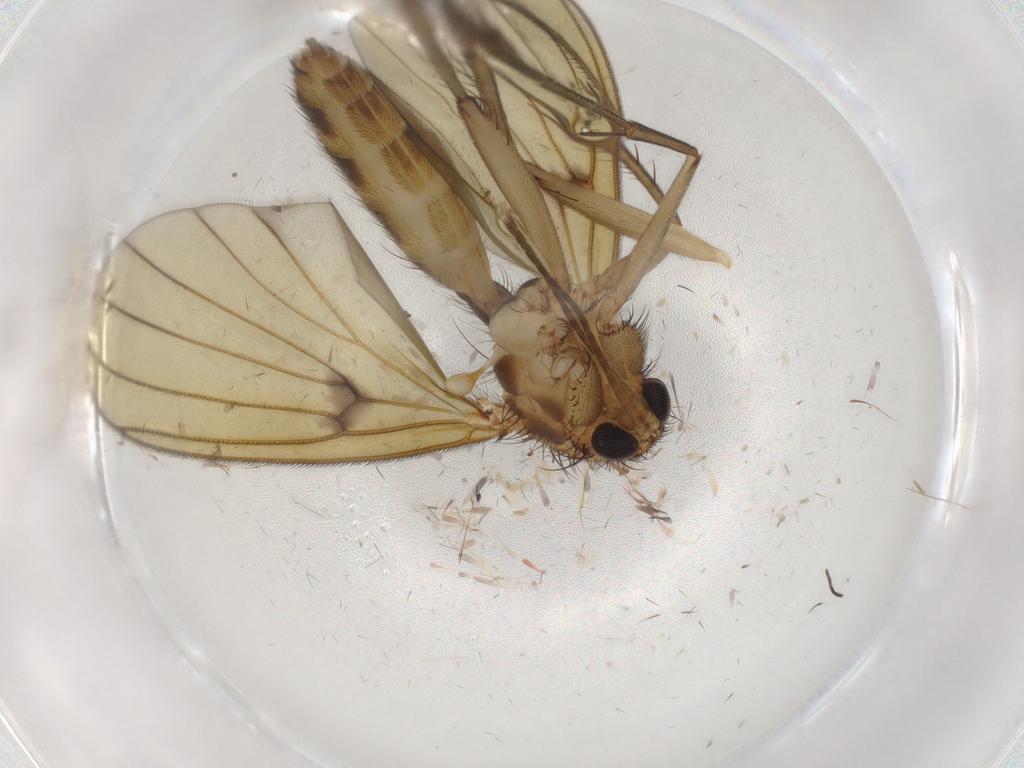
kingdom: Animalia
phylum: Arthropoda
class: Insecta
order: Diptera
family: Mycetophilidae
